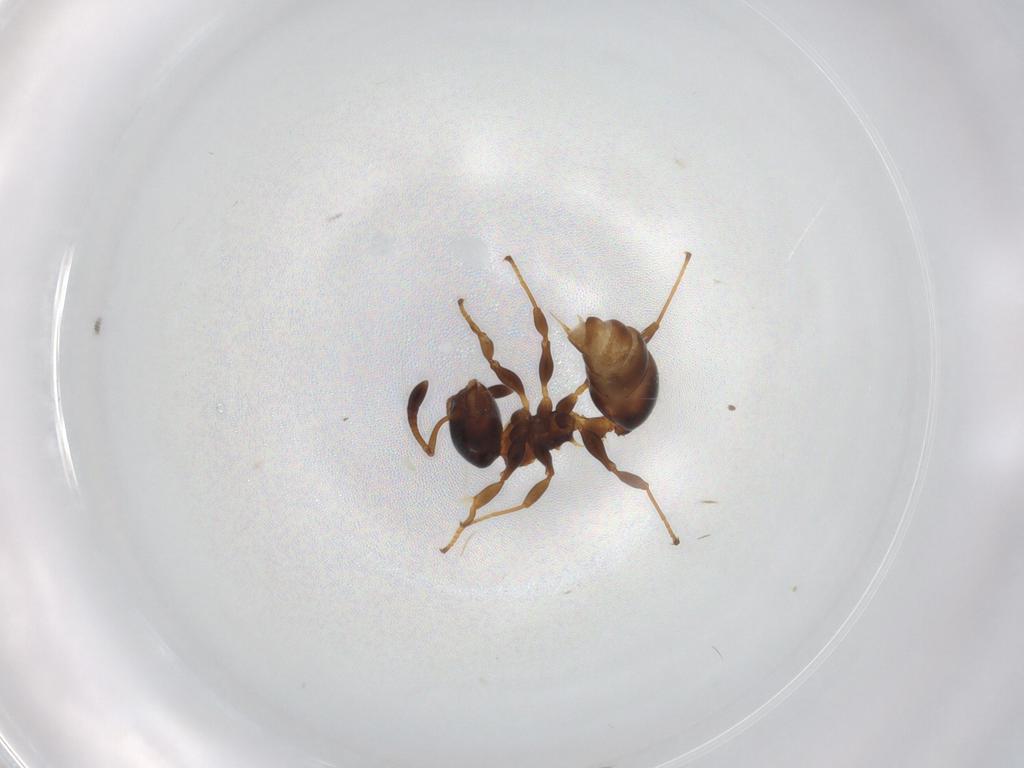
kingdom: Animalia
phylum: Arthropoda
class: Insecta
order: Hymenoptera
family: Formicidae
